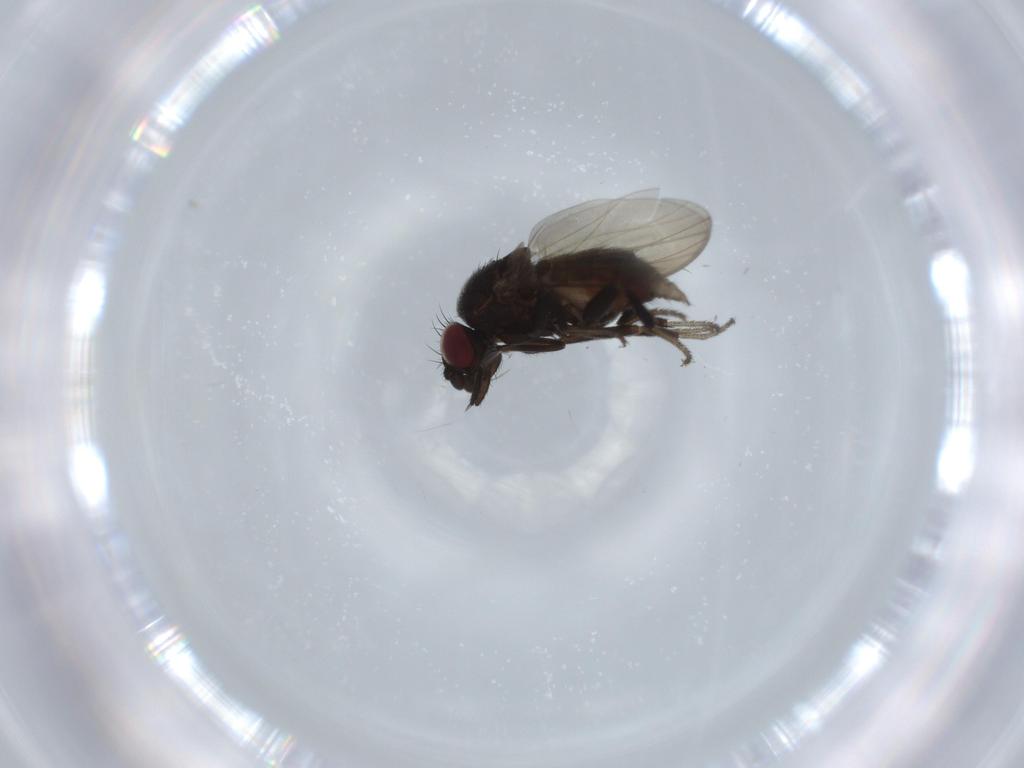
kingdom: Animalia
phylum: Arthropoda
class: Insecta
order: Diptera
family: Milichiidae
